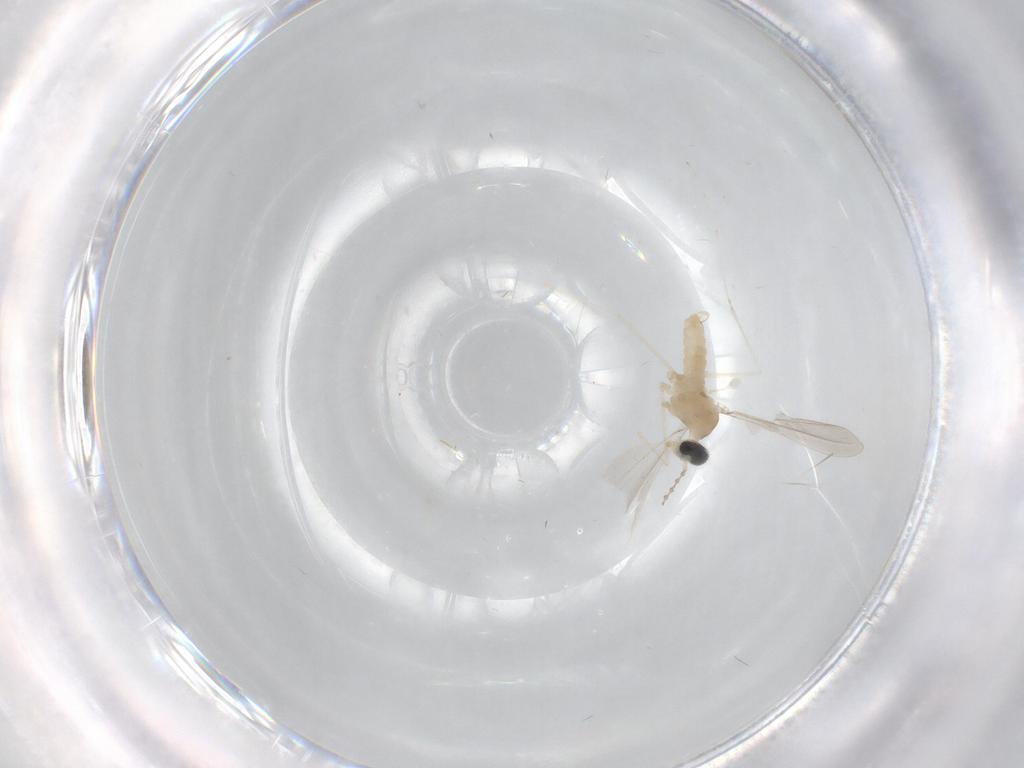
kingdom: Animalia
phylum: Arthropoda
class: Insecta
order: Diptera
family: Cecidomyiidae
